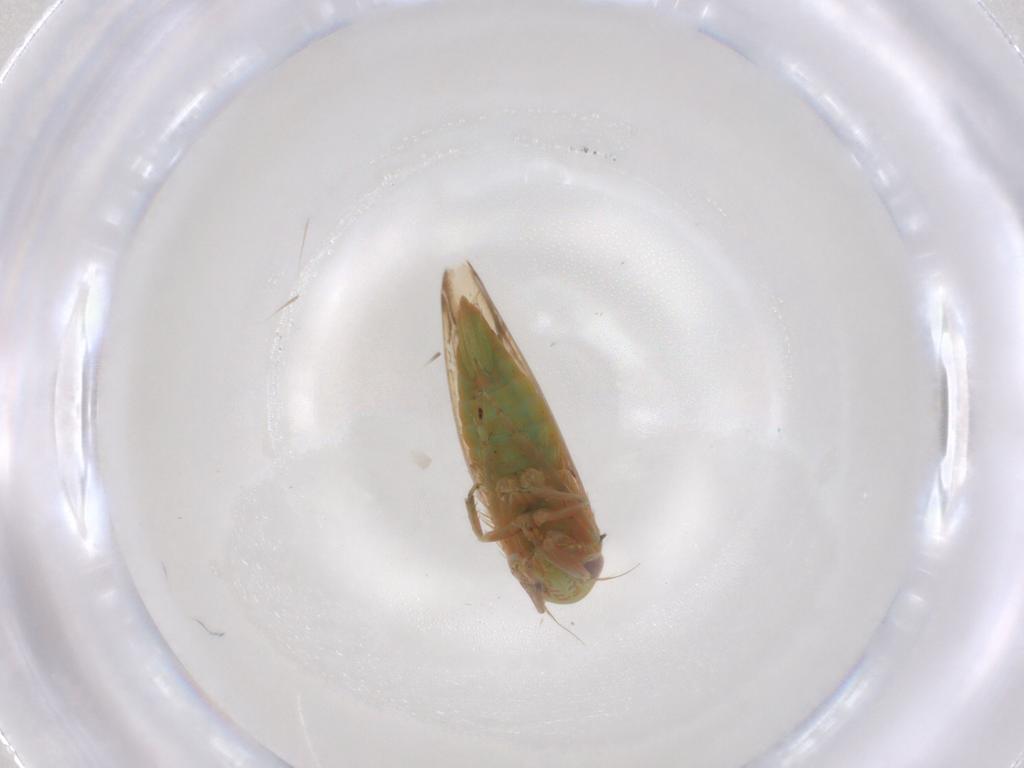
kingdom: Animalia
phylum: Arthropoda
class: Insecta
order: Hemiptera
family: Cicadellidae
